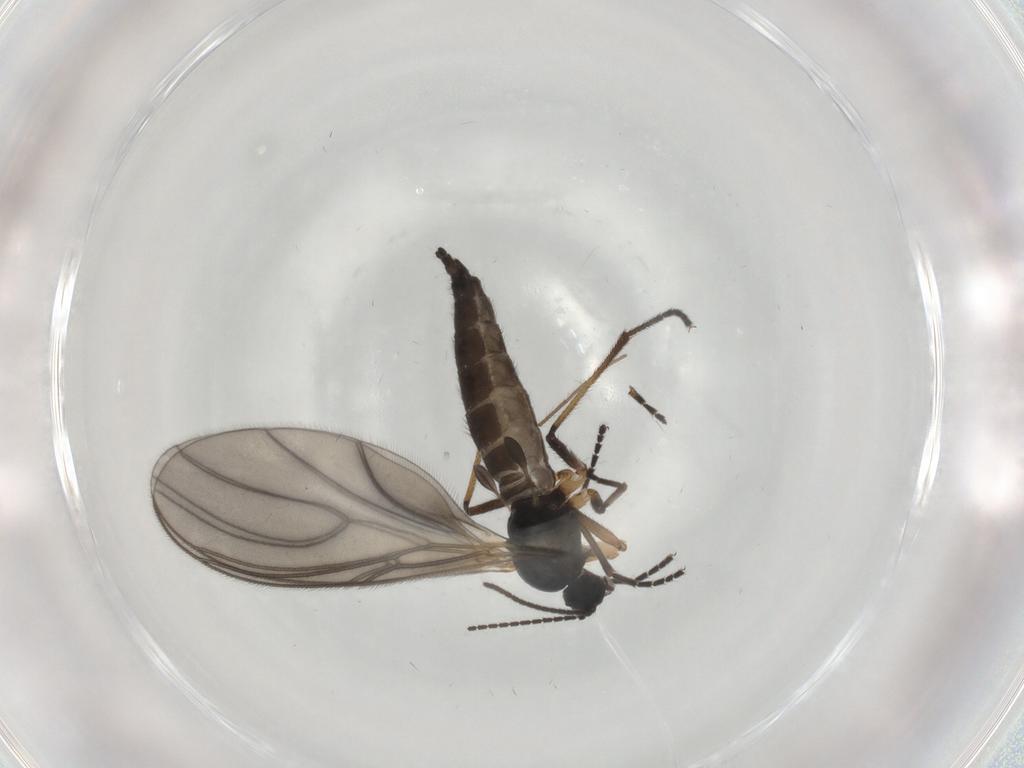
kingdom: Animalia
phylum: Arthropoda
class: Insecta
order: Diptera
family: Sciaridae
